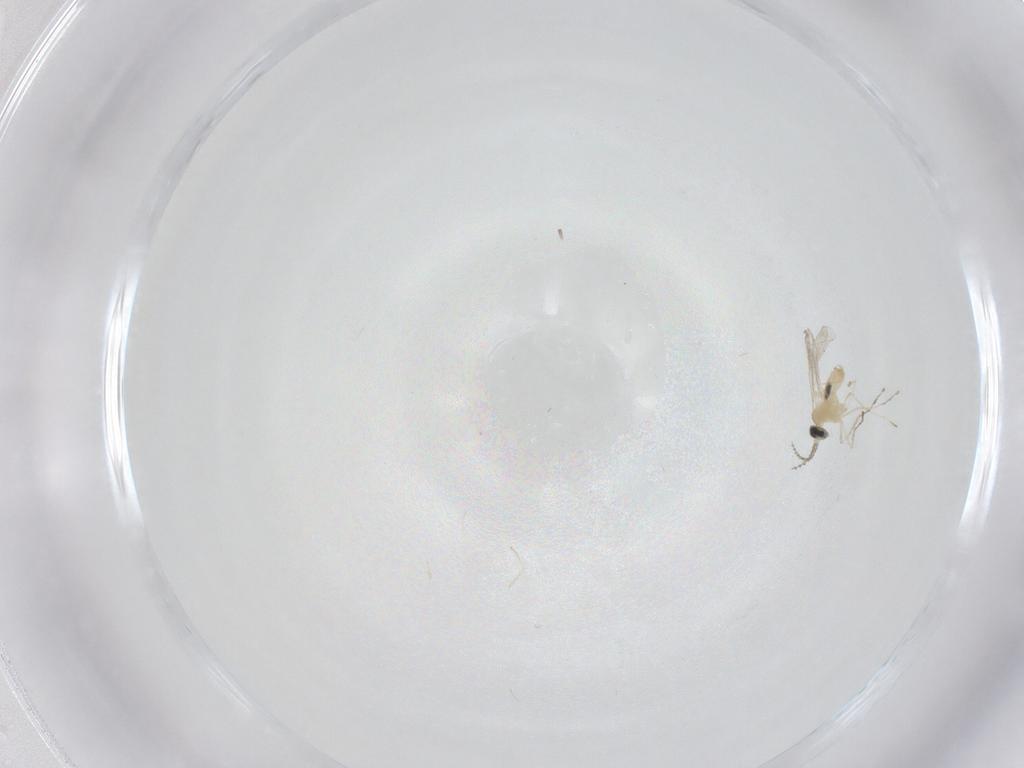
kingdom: Animalia
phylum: Arthropoda
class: Insecta
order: Diptera
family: Cecidomyiidae
